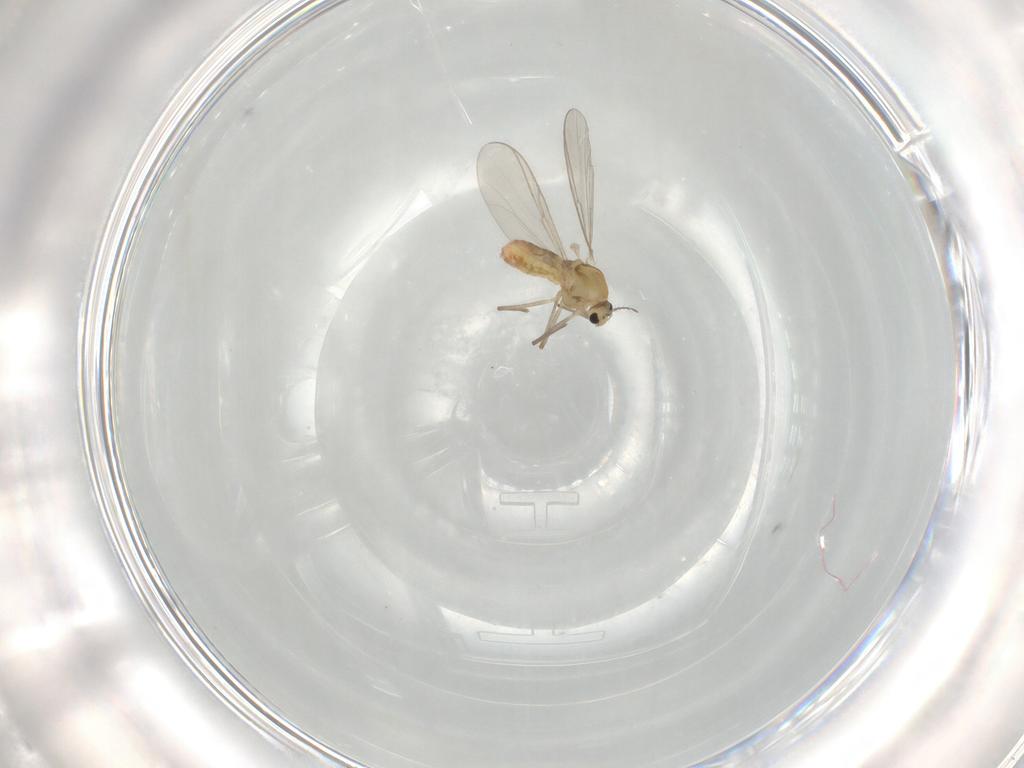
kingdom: Animalia
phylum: Arthropoda
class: Insecta
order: Diptera
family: Chironomidae
